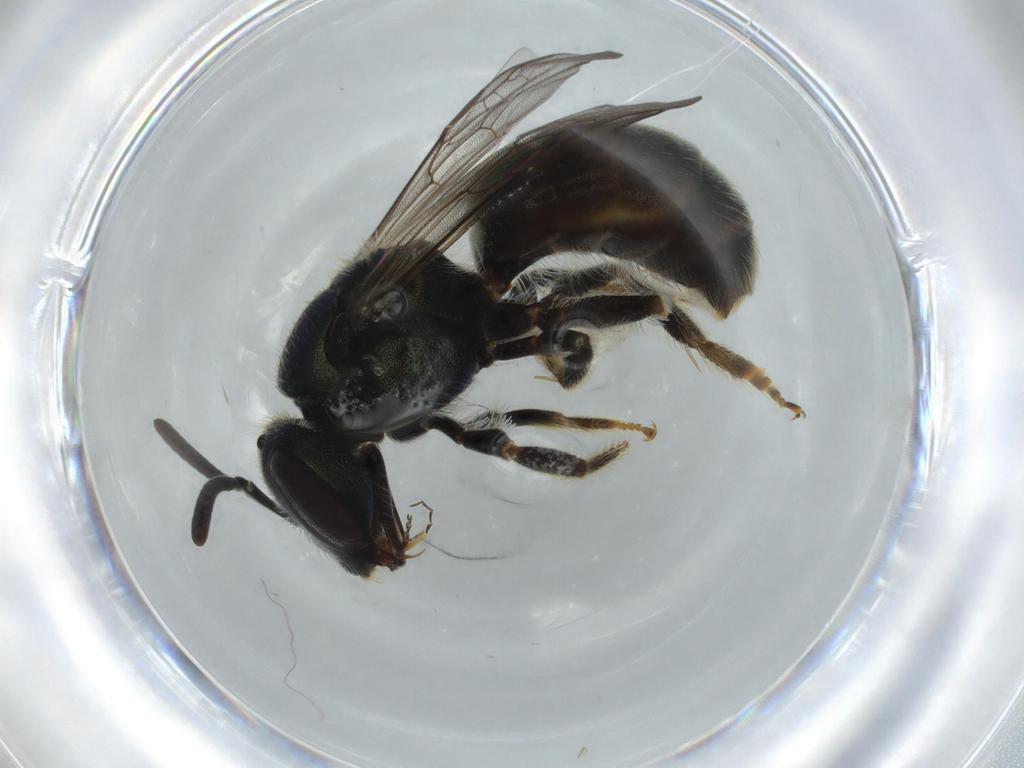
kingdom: Animalia
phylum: Arthropoda
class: Insecta
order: Hymenoptera
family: Halictidae
